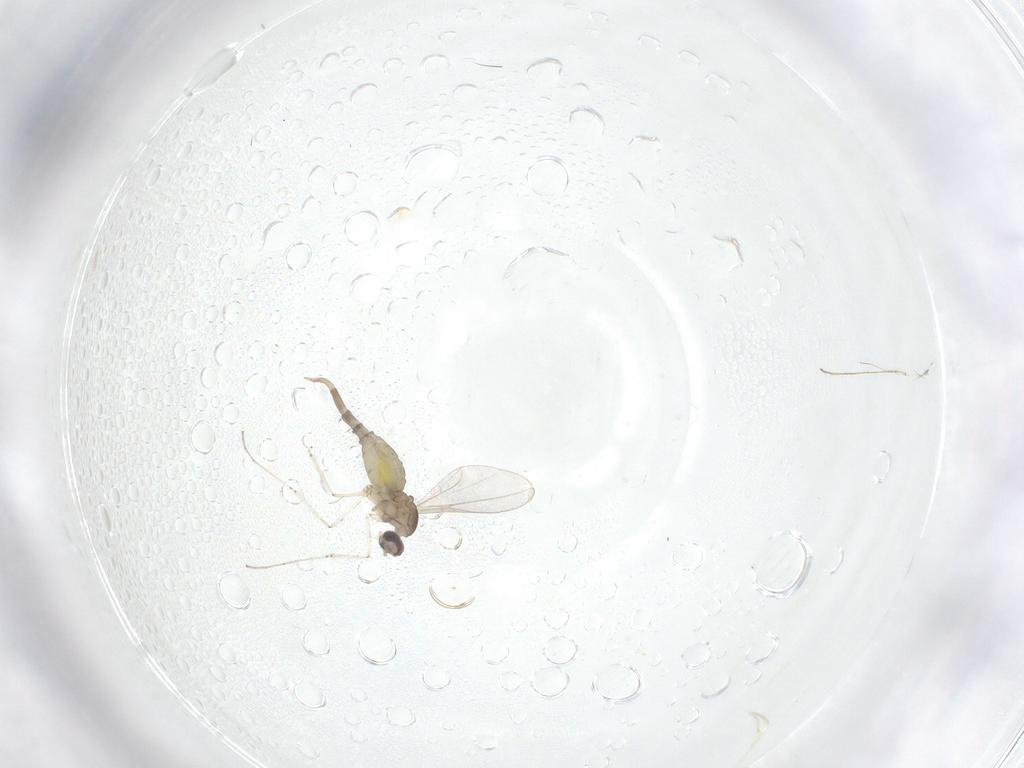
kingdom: Animalia
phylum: Arthropoda
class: Insecta
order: Diptera
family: Cecidomyiidae
